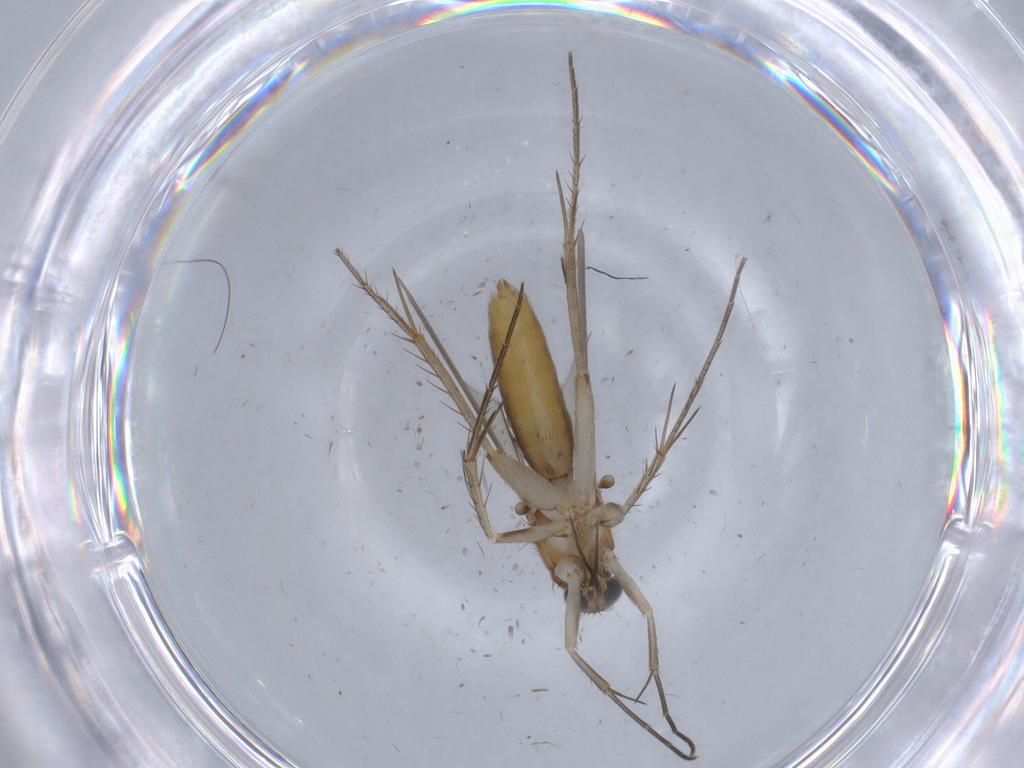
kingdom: Animalia
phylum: Arthropoda
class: Insecta
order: Diptera
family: Mycetophilidae
